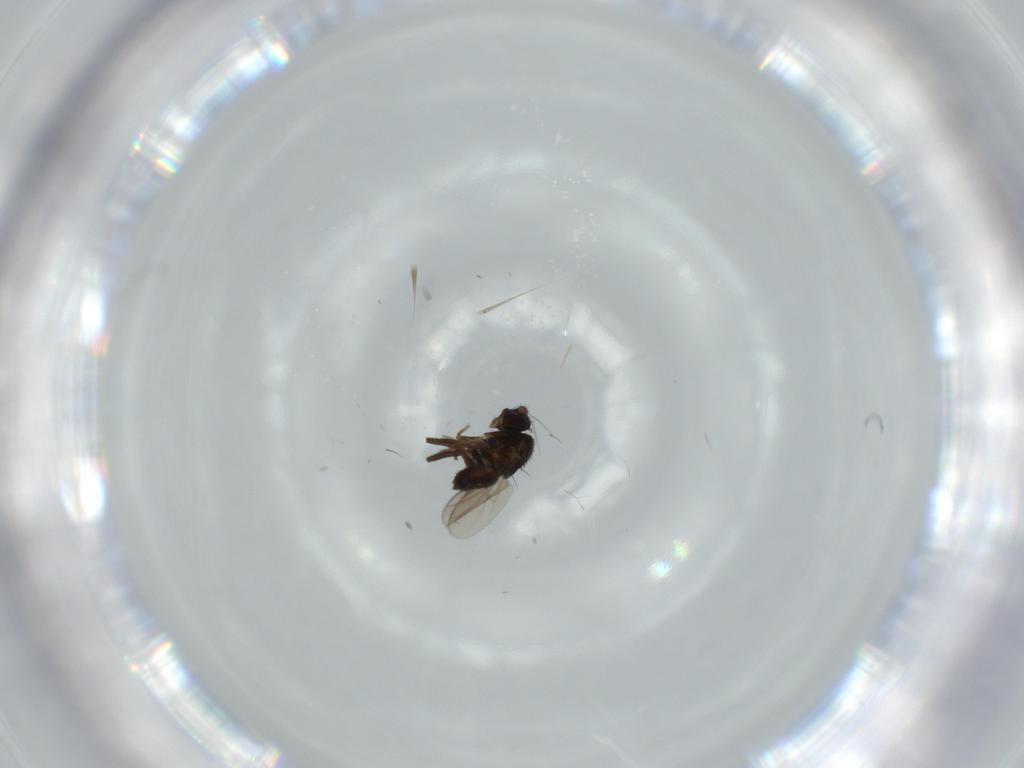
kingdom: Animalia
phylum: Arthropoda
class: Insecta
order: Diptera
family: Sphaeroceridae
